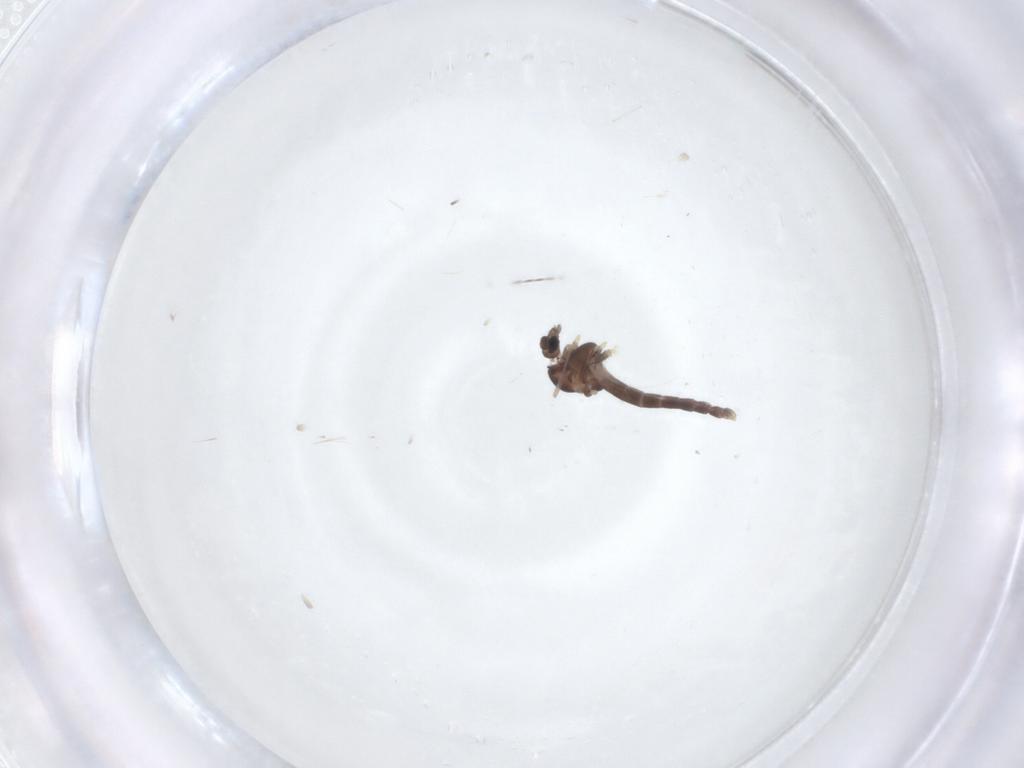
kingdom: Animalia
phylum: Arthropoda
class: Insecta
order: Diptera
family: Chironomidae
